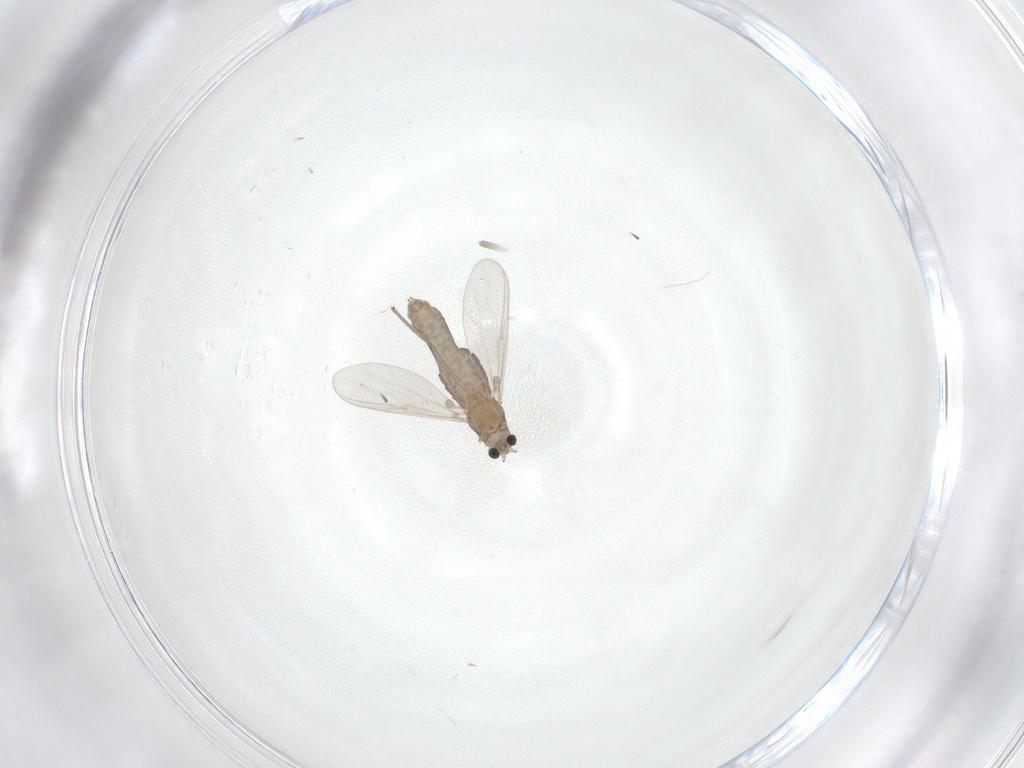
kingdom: Animalia
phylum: Arthropoda
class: Insecta
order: Diptera
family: Chironomidae
